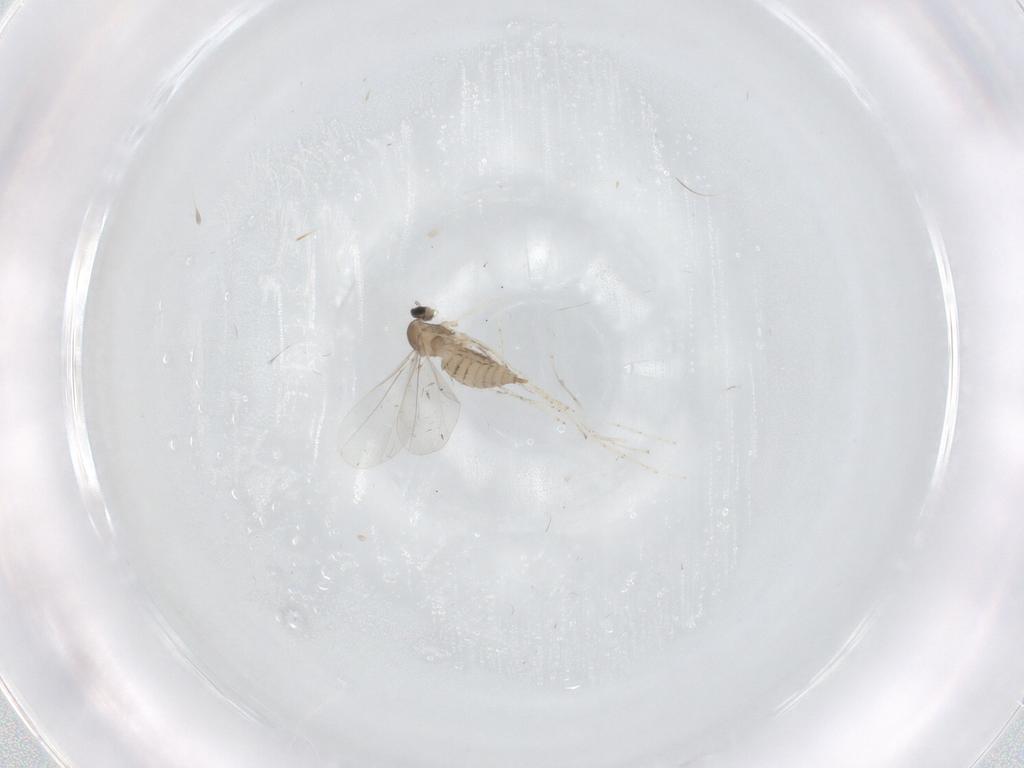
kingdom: Animalia
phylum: Arthropoda
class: Insecta
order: Diptera
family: Cecidomyiidae
